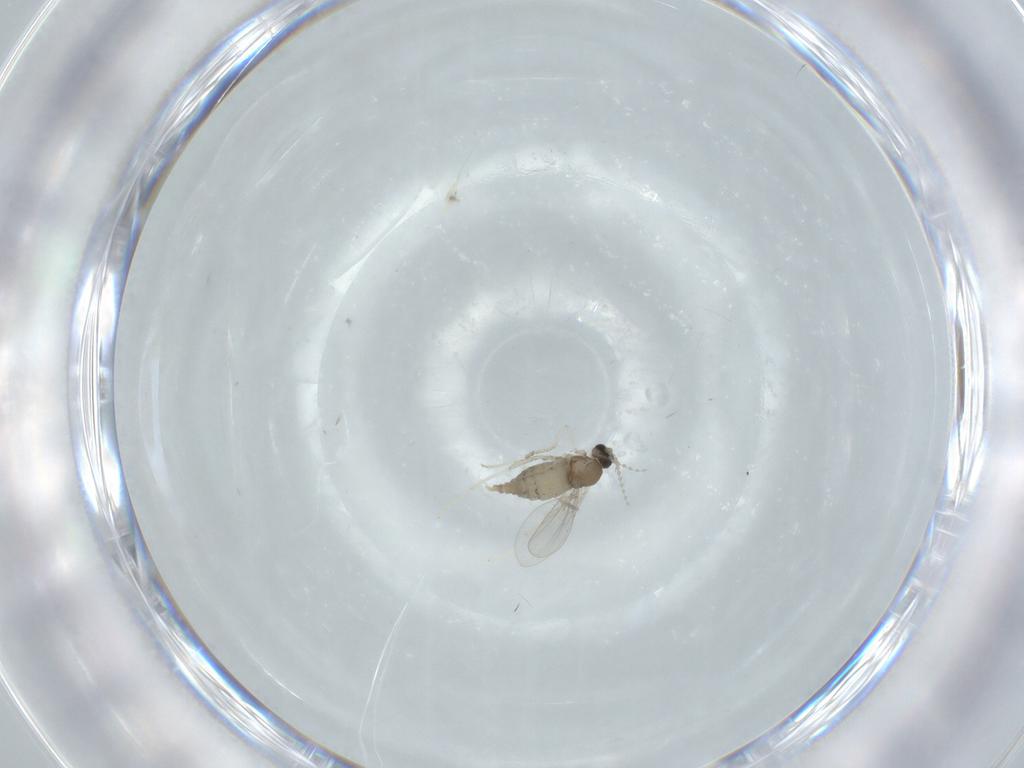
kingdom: Animalia
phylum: Arthropoda
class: Insecta
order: Diptera
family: Cecidomyiidae
